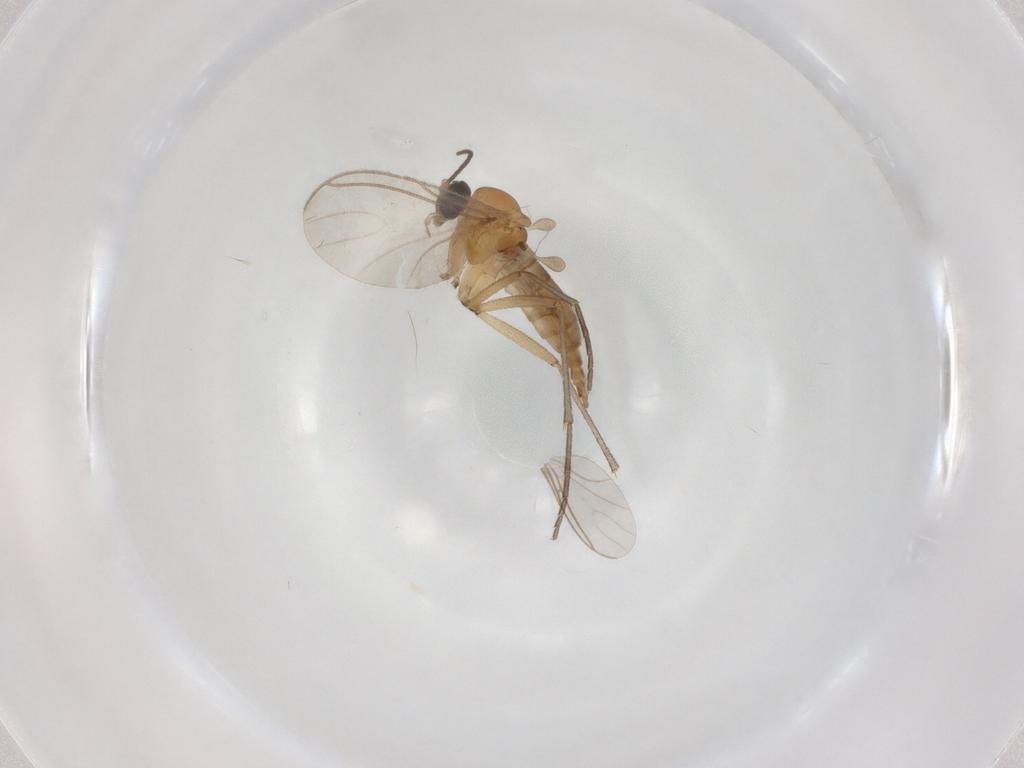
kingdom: Animalia
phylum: Arthropoda
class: Insecta
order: Diptera
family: Sciaridae
